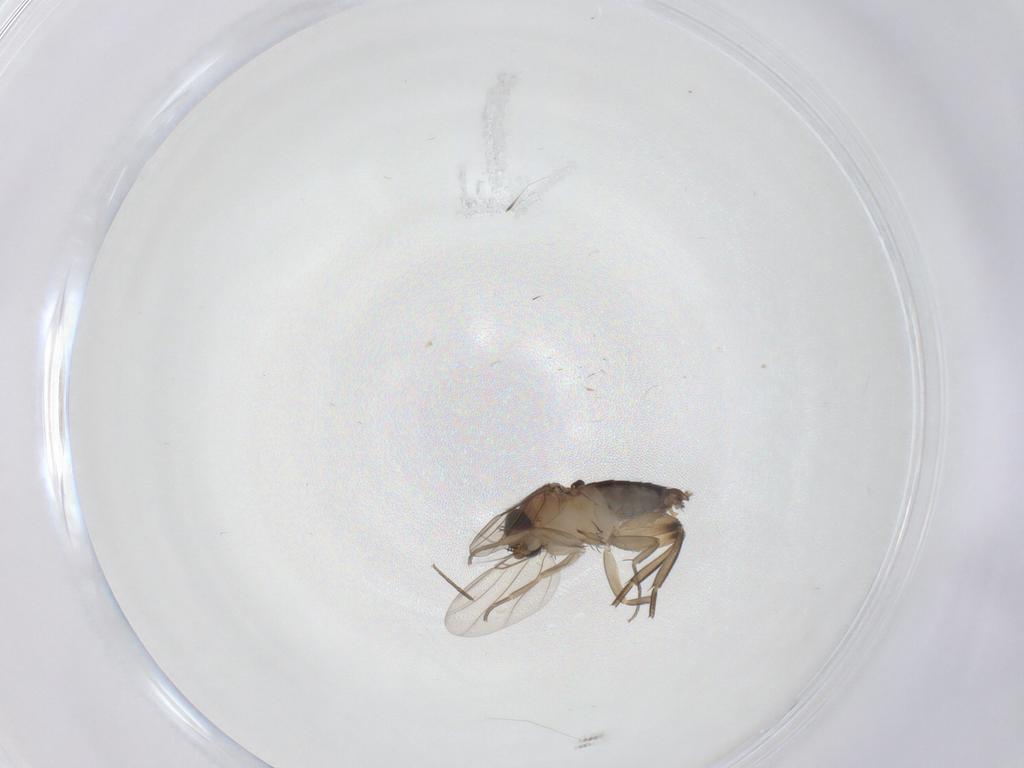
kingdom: Animalia
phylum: Arthropoda
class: Insecta
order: Diptera
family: Phoridae
